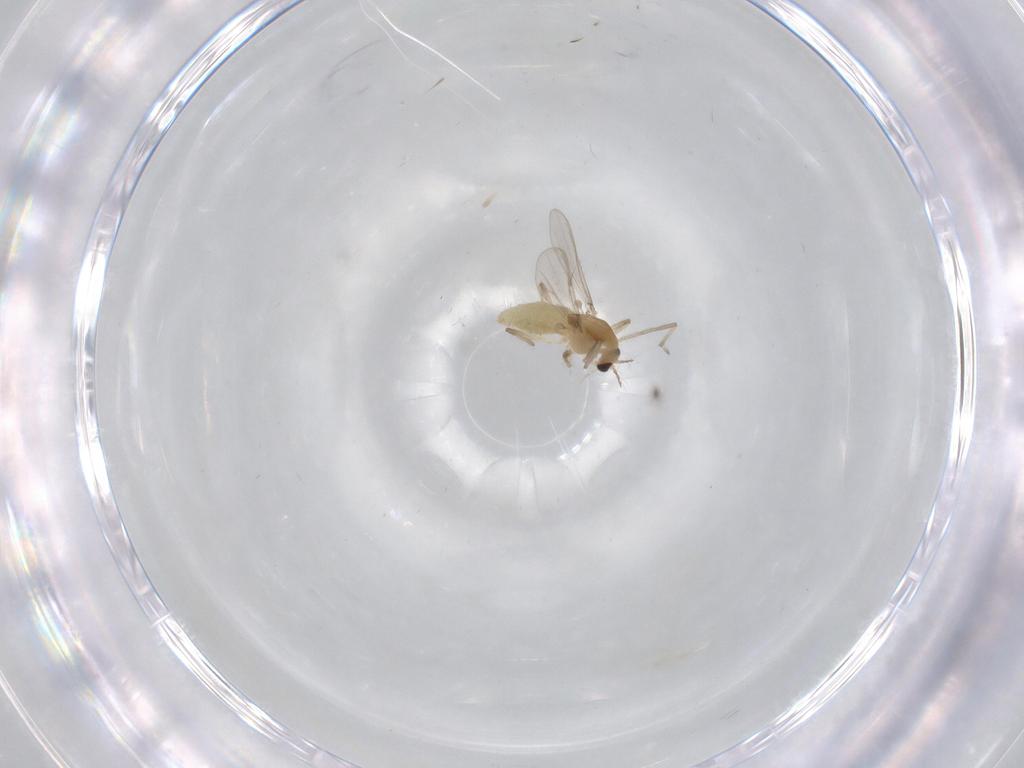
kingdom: Animalia
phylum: Arthropoda
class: Insecta
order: Diptera
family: Chironomidae
